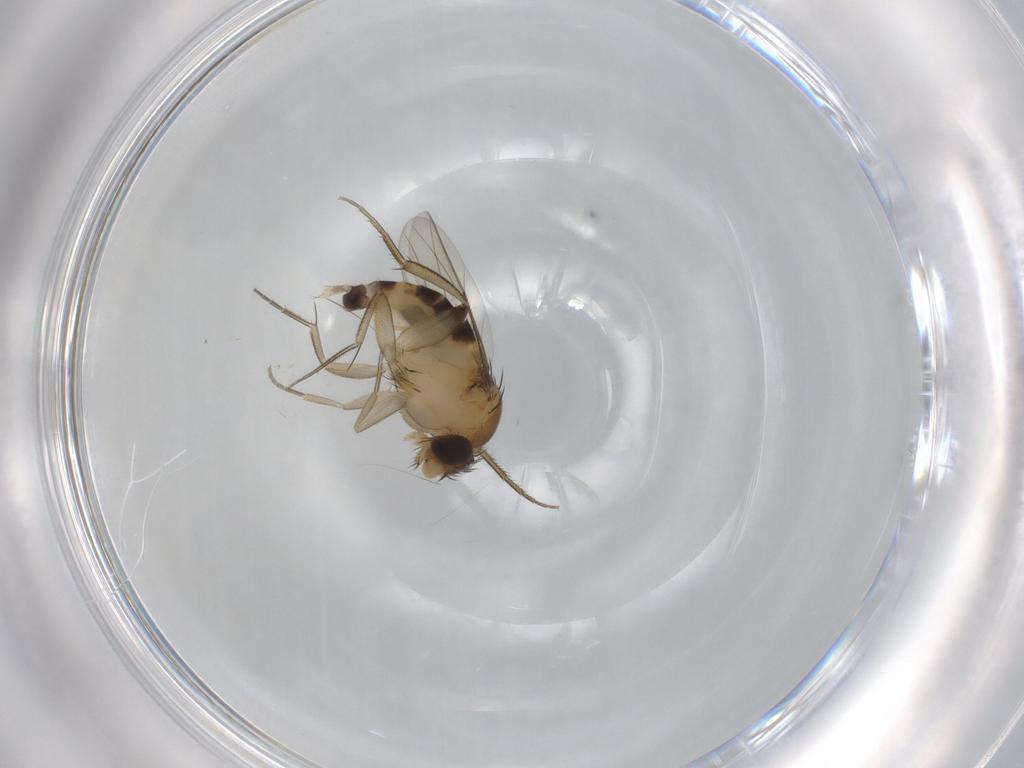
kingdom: Animalia
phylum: Arthropoda
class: Insecta
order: Diptera
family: Phoridae
